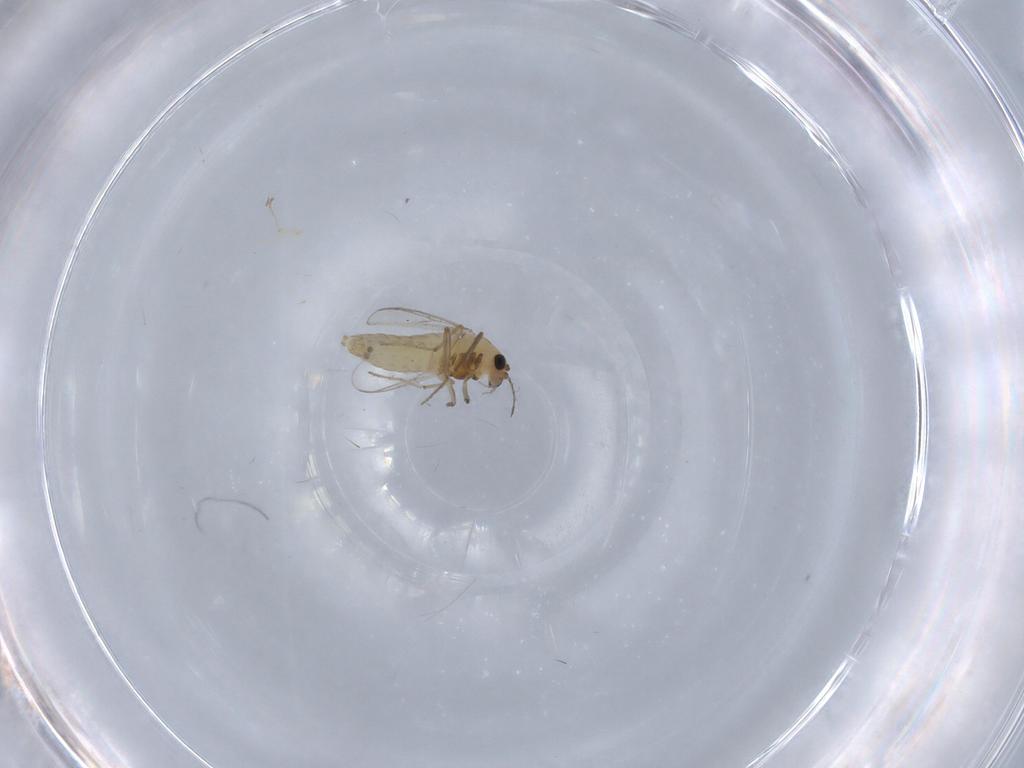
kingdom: Animalia
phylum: Arthropoda
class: Insecta
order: Diptera
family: Chironomidae
